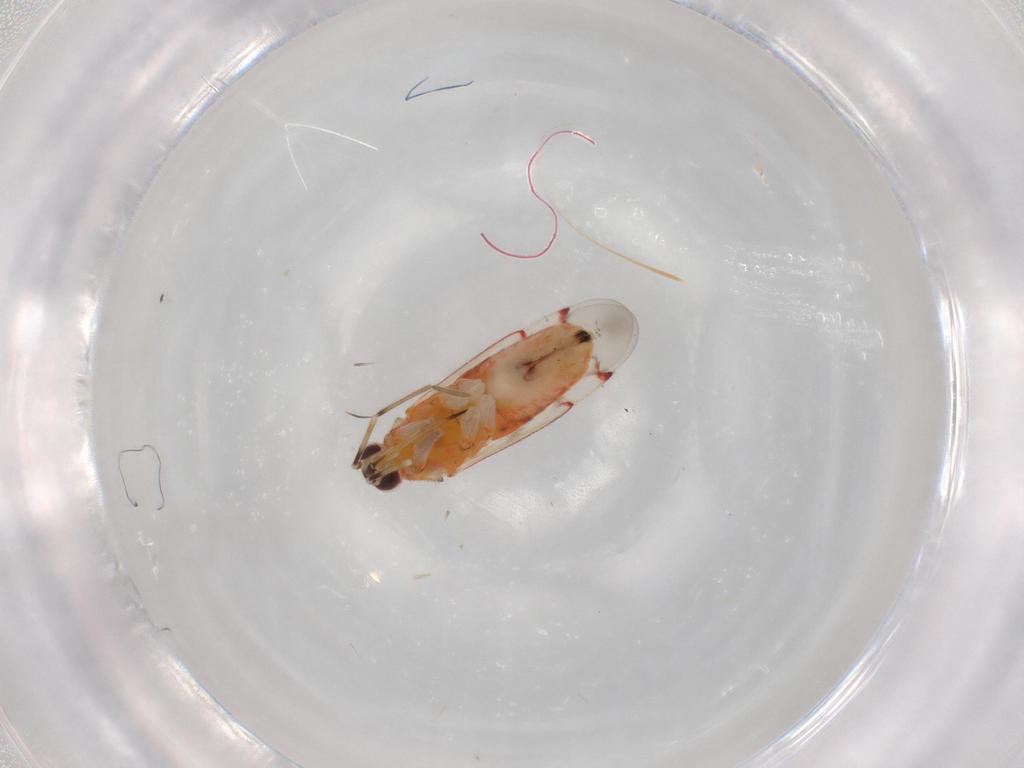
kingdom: Animalia
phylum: Arthropoda
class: Insecta
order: Hemiptera
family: Miridae
